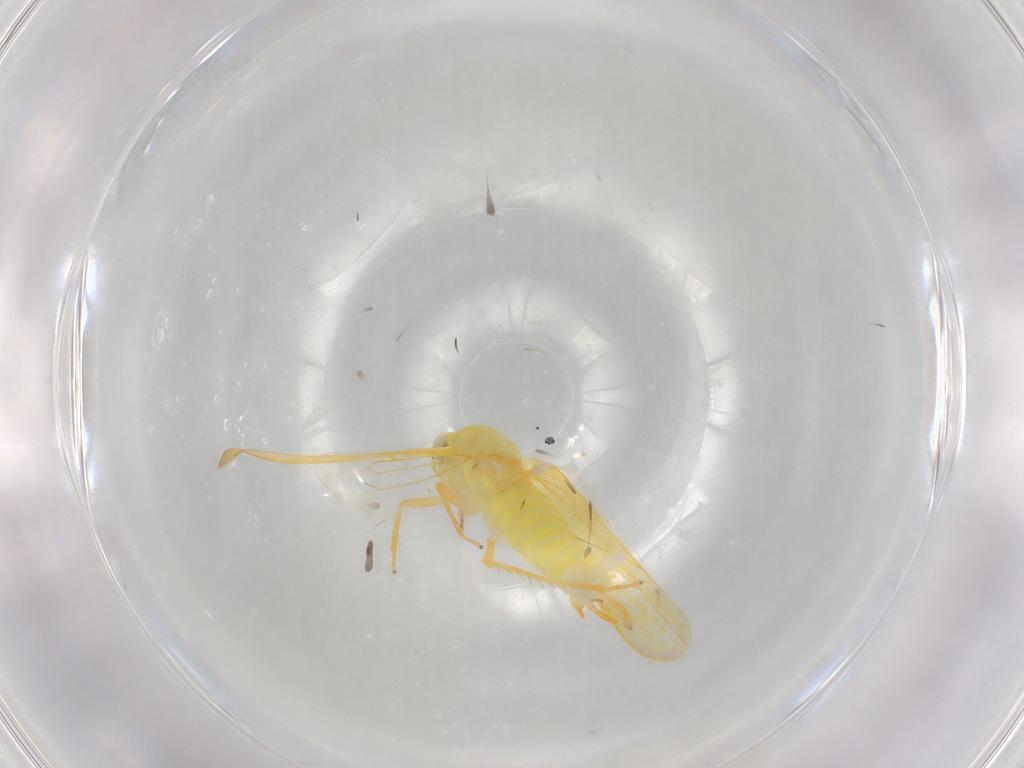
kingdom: Animalia
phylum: Arthropoda
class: Insecta
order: Hemiptera
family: Cicadellidae
